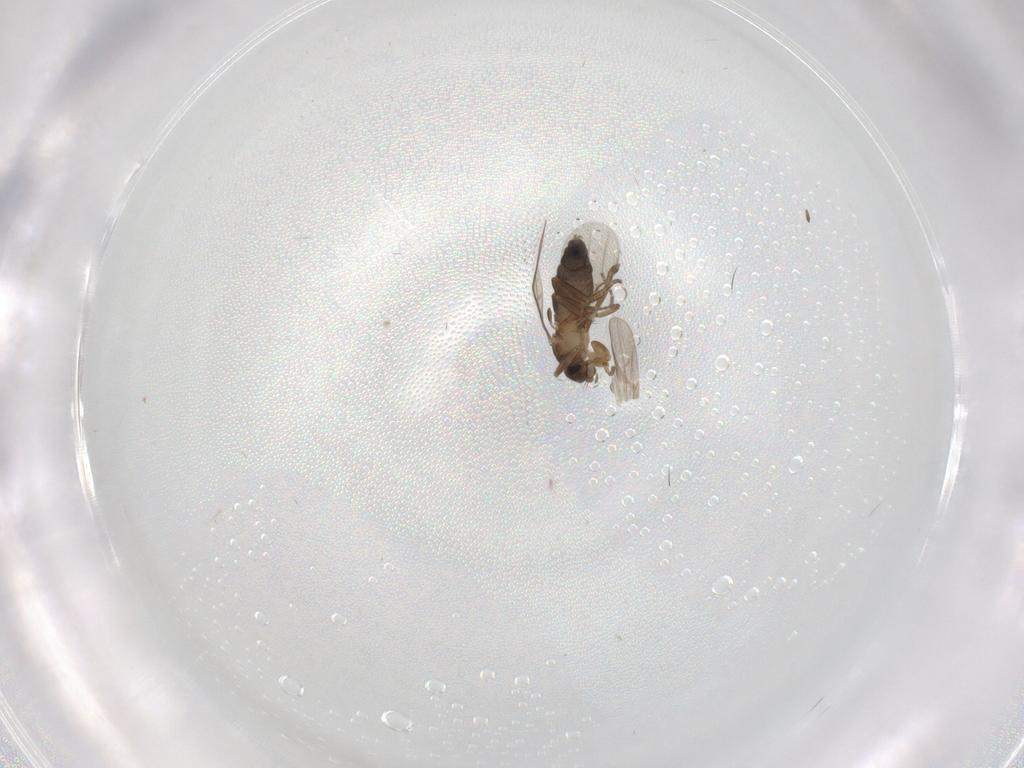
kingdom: Animalia
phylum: Arthropoda
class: Insecta
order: Diptera
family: Ceratopogonidae
